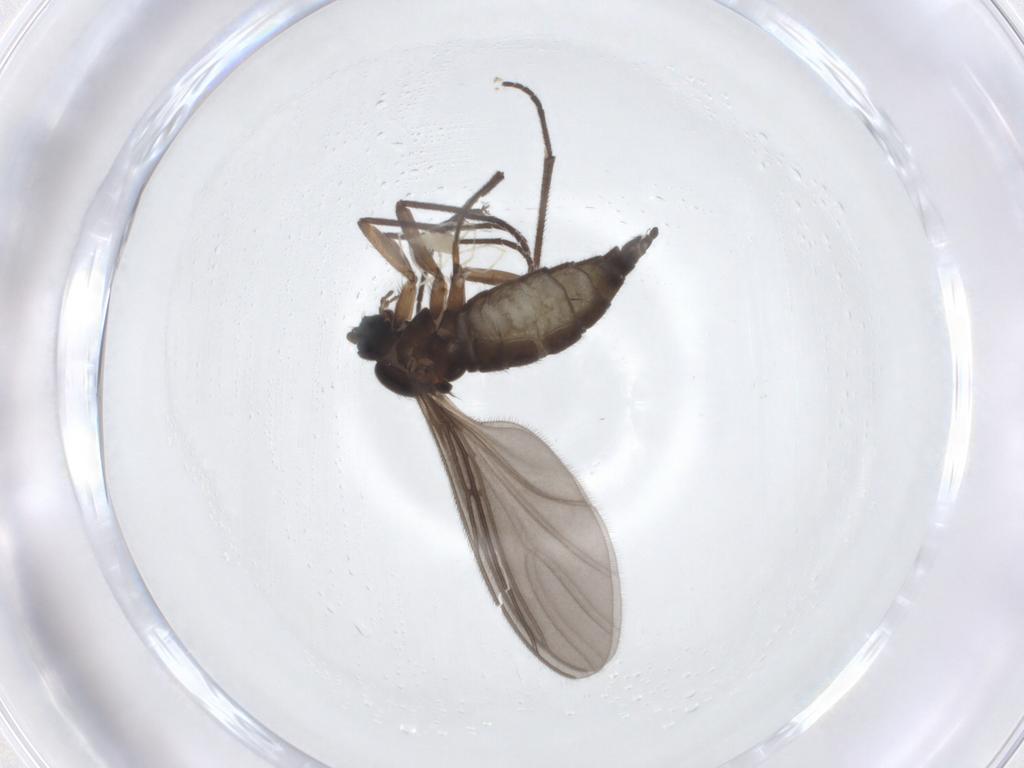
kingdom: Animalia
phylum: Arthropoda
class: Insecta
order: Diptera
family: Sciaridae
